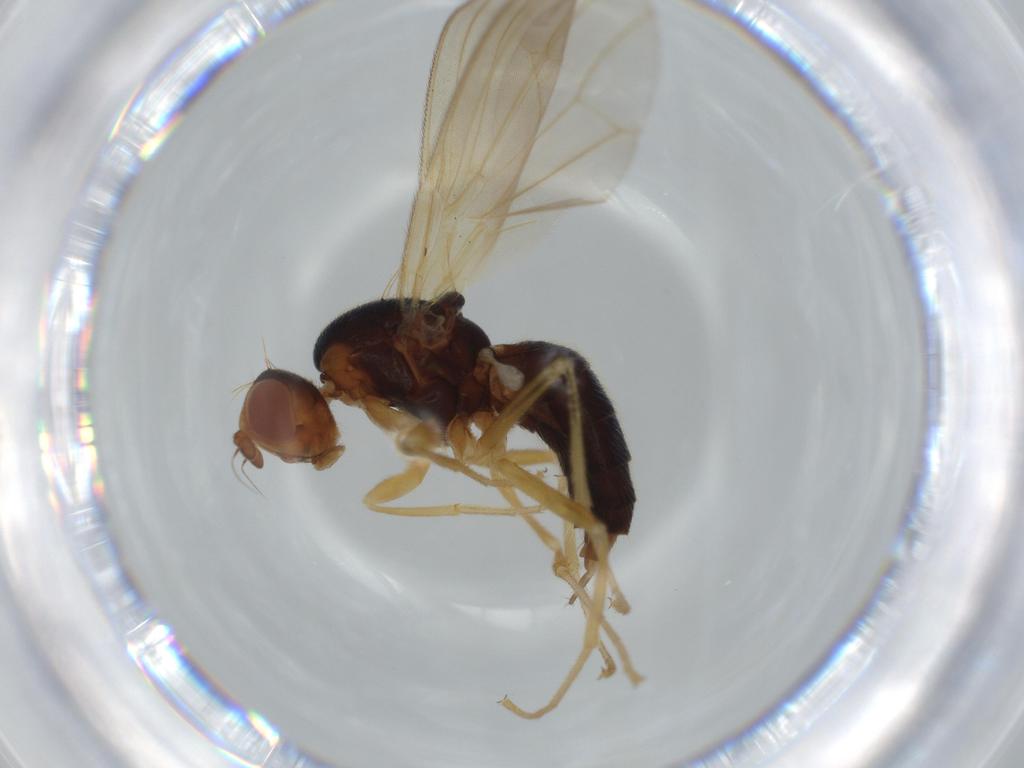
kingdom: Animalia
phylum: Arthropoda
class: Insecta
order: Diptera
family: Psilidae
